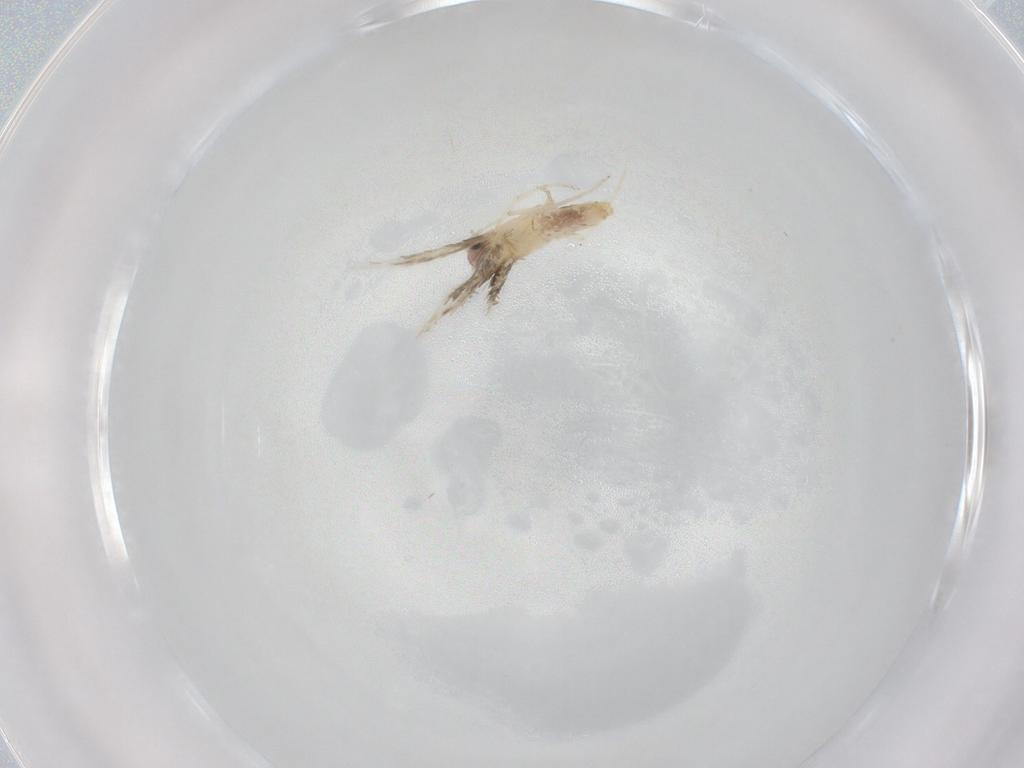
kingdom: Animalia
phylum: Arthropoda
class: Insecta
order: Lepidoptera
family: Nepticulidae
